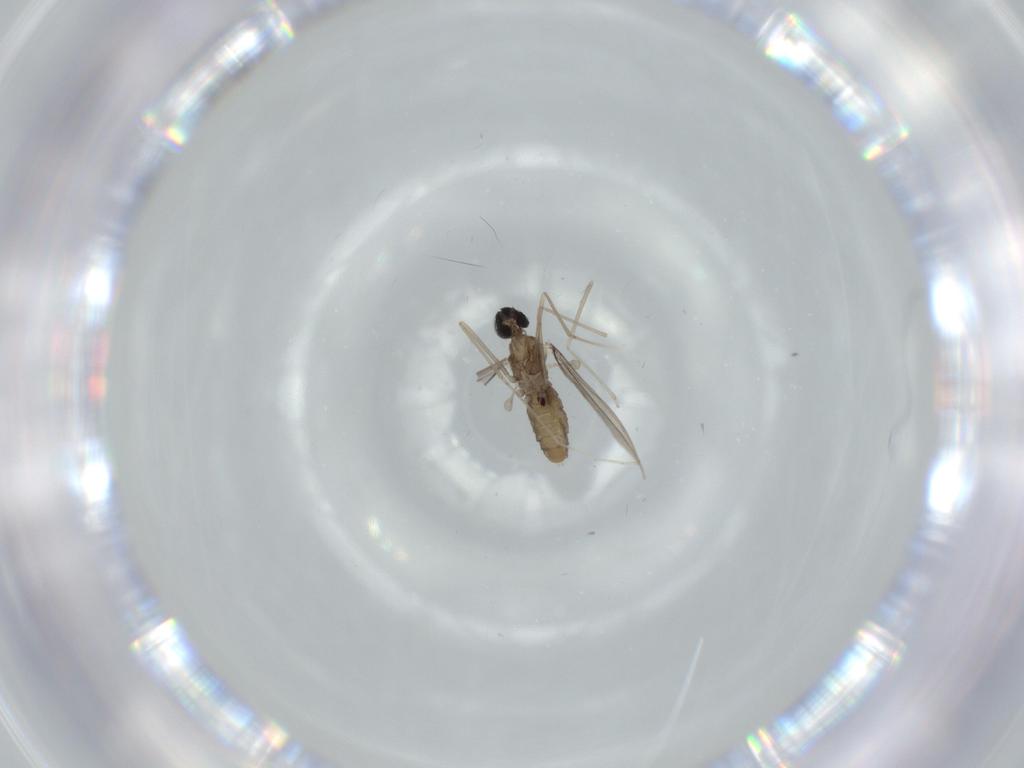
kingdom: Animalia
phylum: Arthropoda
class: Insecta
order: Diptera
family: Cecidomyiidae
